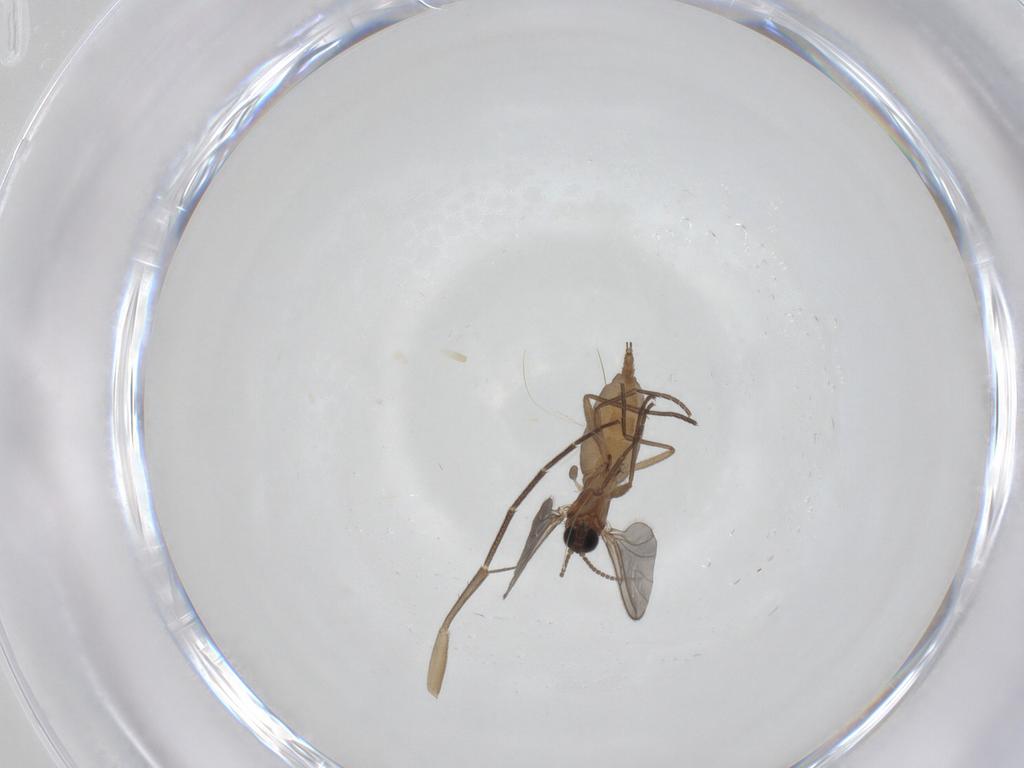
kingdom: Animalia
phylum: Arthropoda
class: Insecta
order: Diptera
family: Sciaridae
